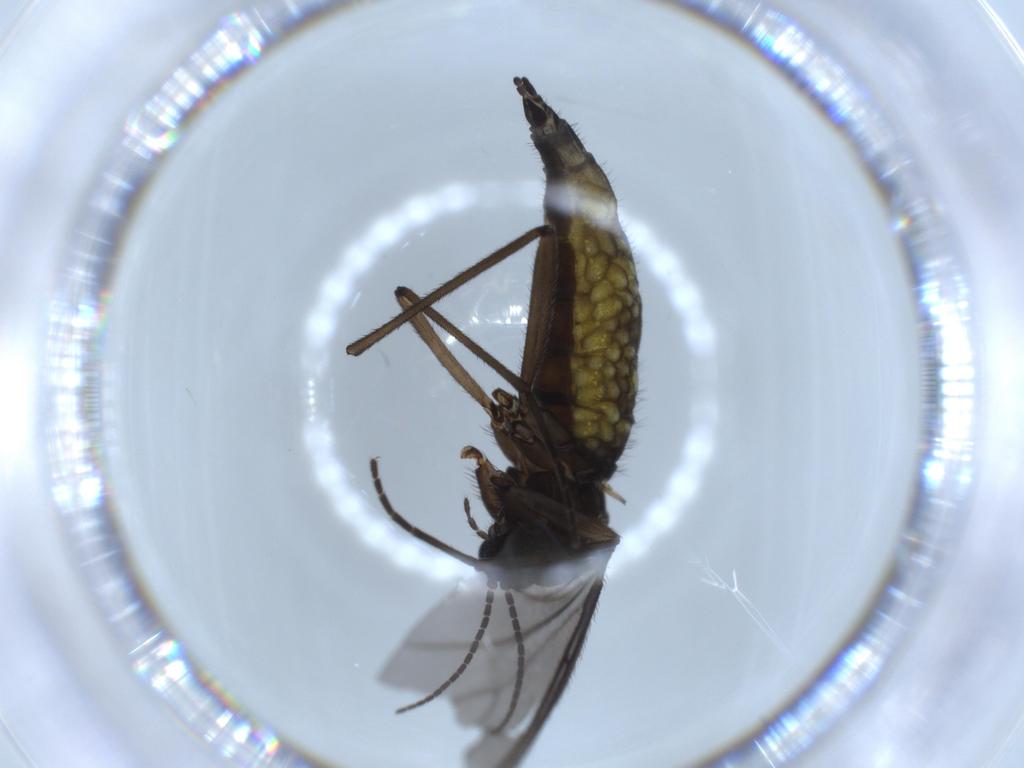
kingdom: Animalia
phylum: Arthropoda
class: Insecta
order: Diptera
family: Sciaridae
